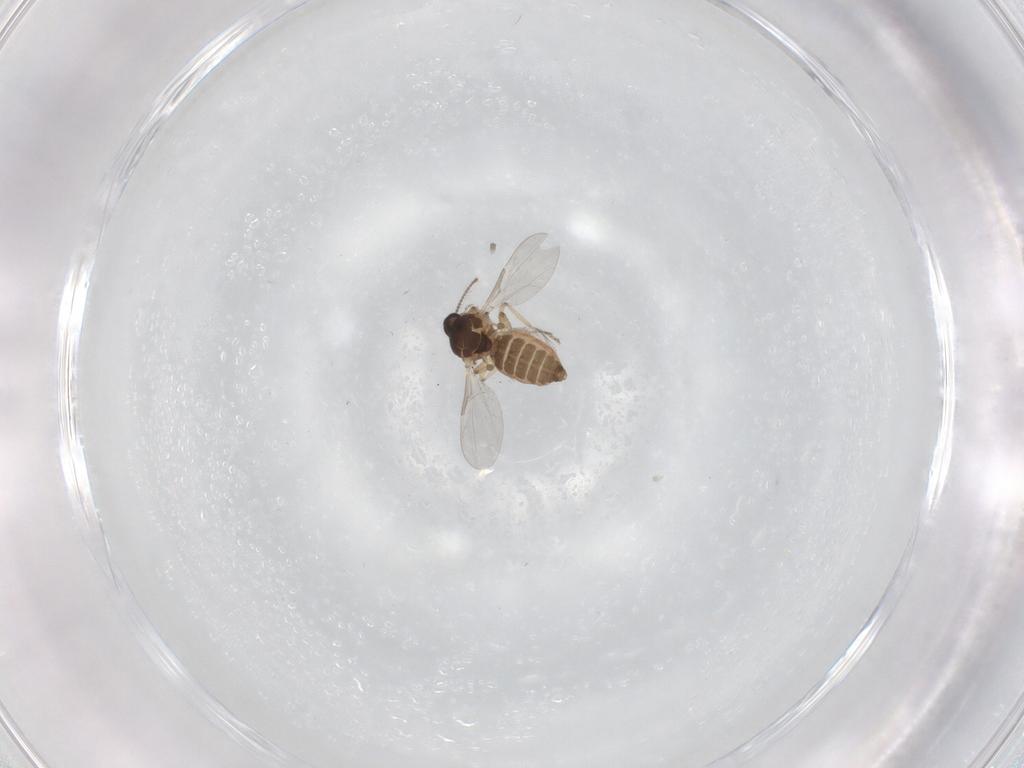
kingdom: Animalia
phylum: Arthropoda
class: Insecta
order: Diptera
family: Ceratopogonidae
